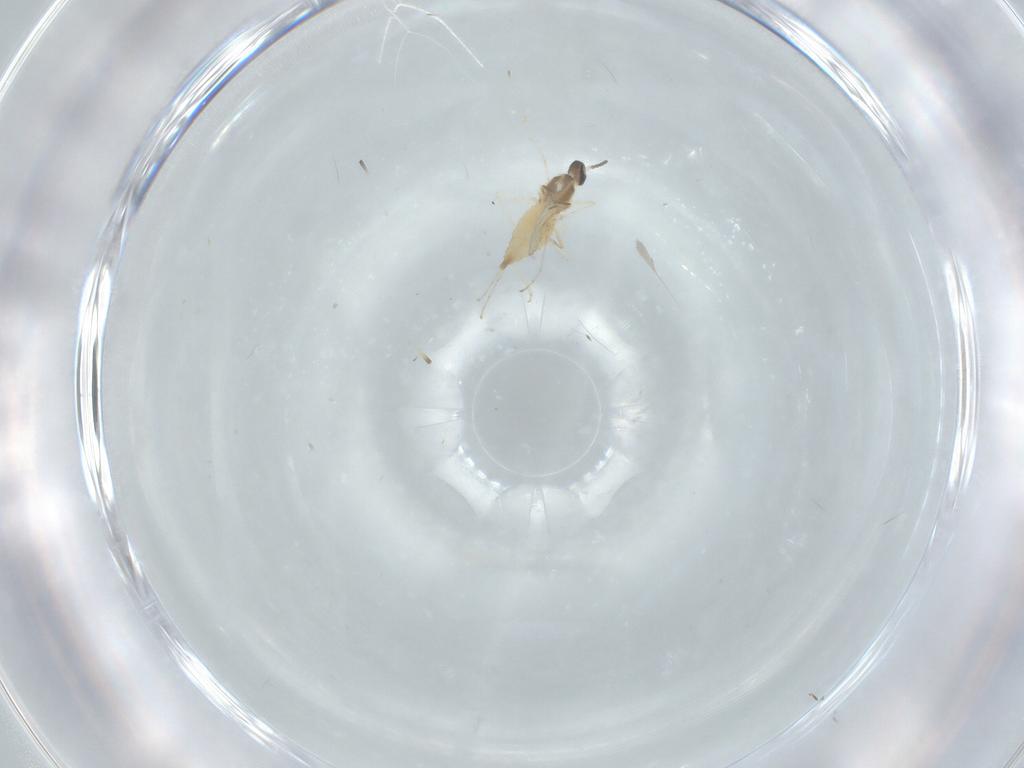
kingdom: Animalia
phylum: Arthropoda
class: Insecta
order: Diptera
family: Cecidomyiidae
